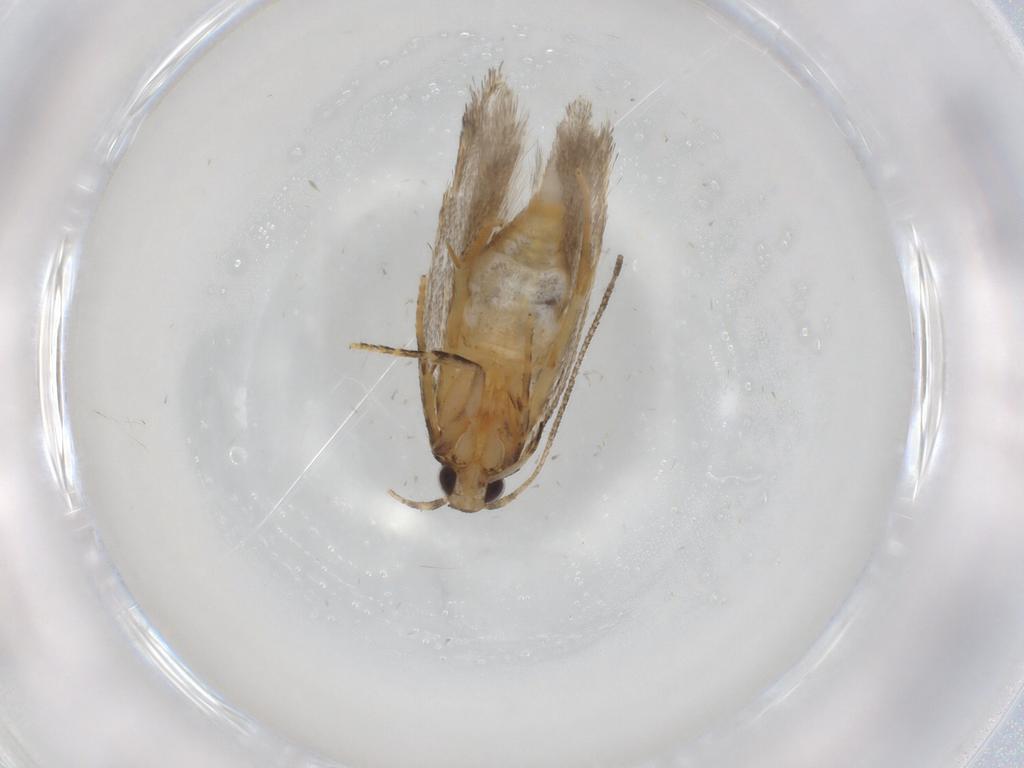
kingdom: Animalia
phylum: Arthropoda
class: Insecta
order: Lepidoptera
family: Autostichidae
